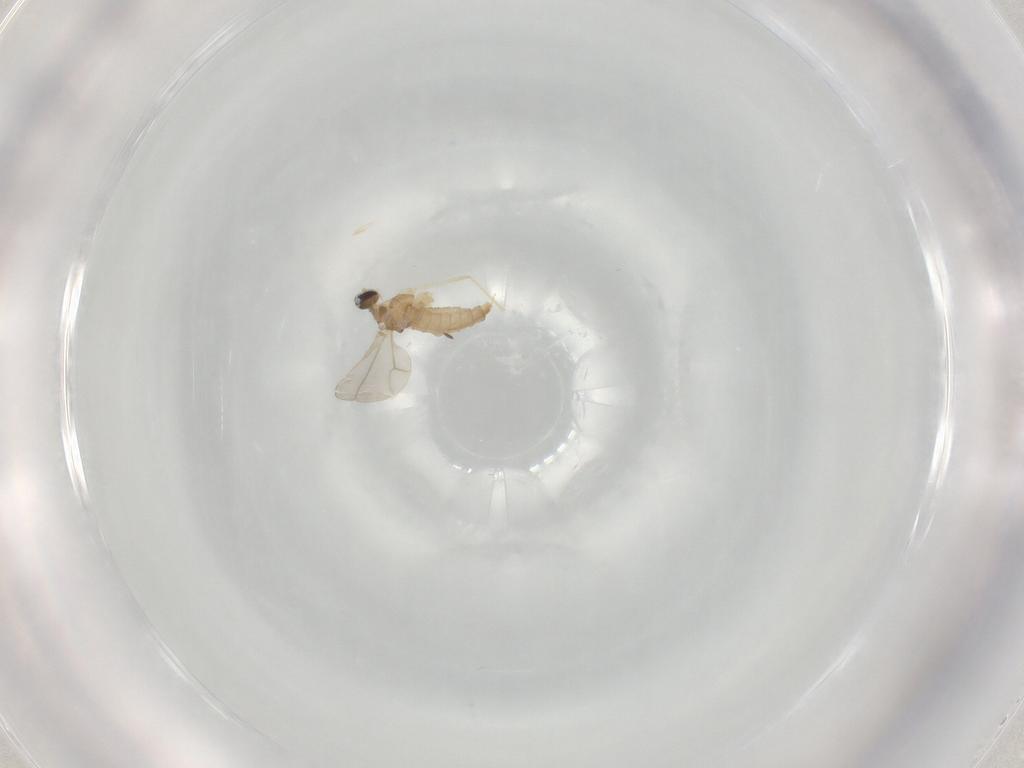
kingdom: Animalia
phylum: Arthropoda
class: Insecta
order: Diptera
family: Cecidomyiidae
